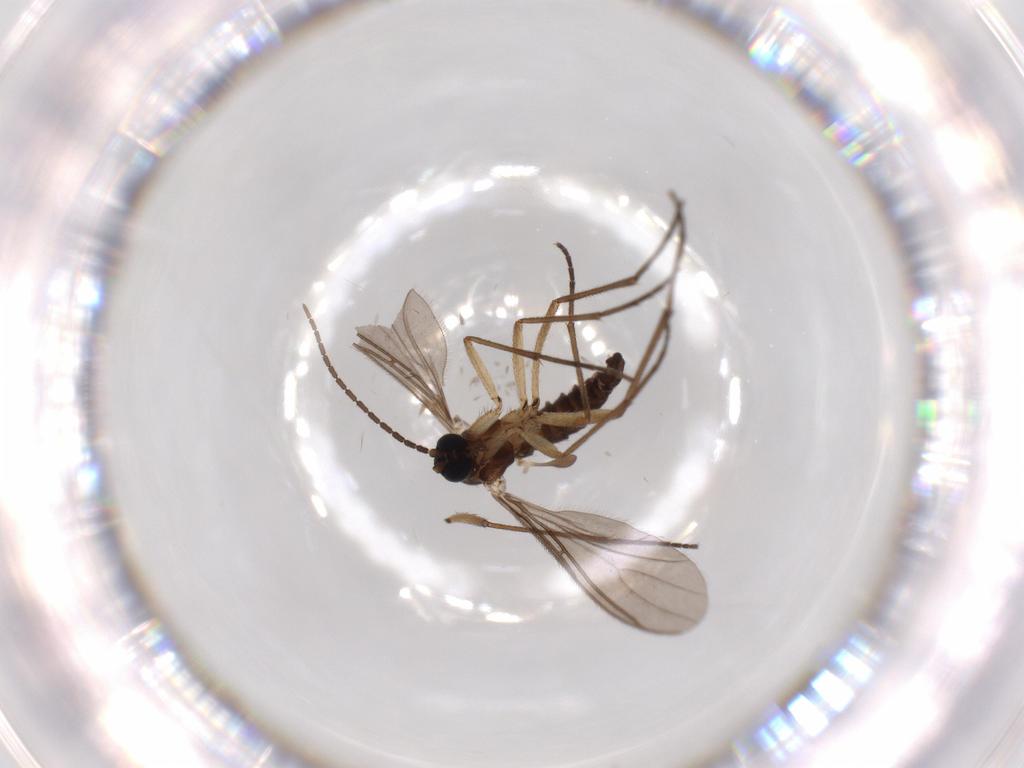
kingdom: Animalia
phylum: Arthropoda
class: Insecta
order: Diptera
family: Sciaridae
